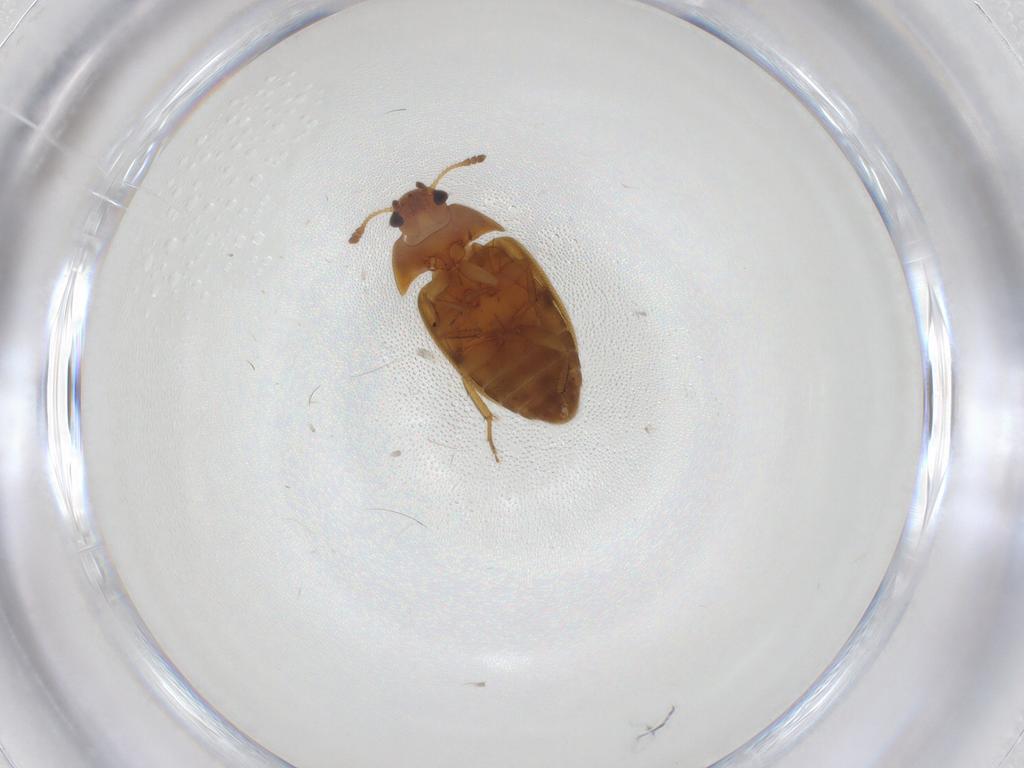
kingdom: Animalia
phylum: Arthropoda
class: Insecta
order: Coleoptera
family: Mycetophagidae
